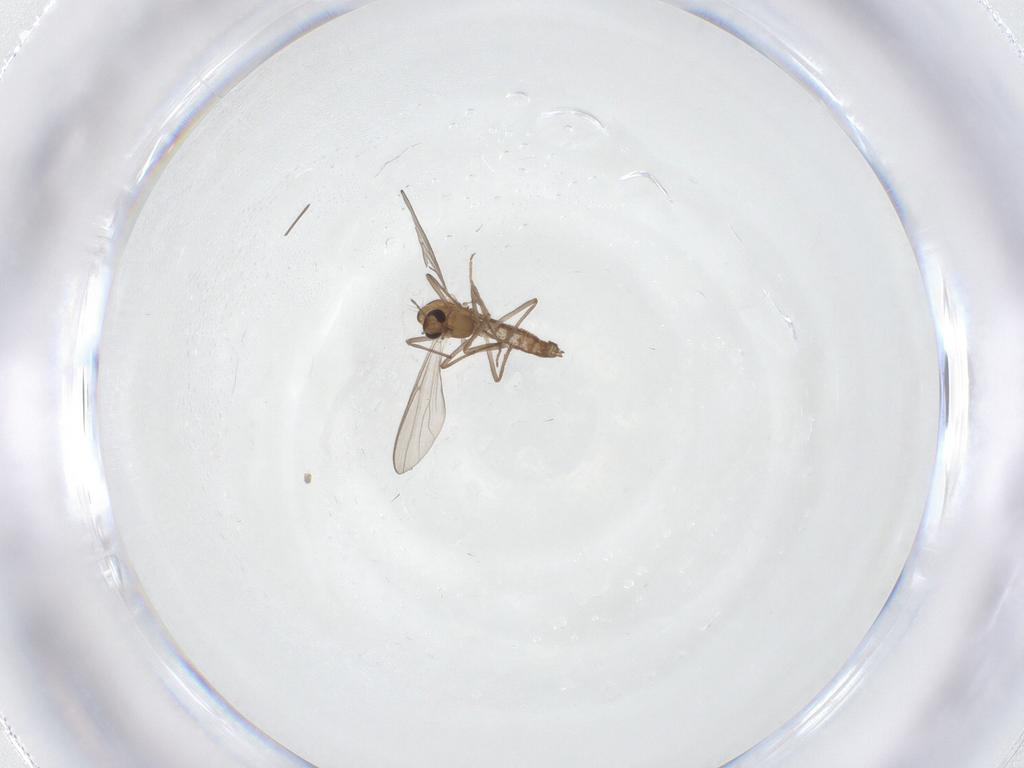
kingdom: Animalia
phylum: Arthropoda
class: Insecta
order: Diptera
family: Chironomidae
